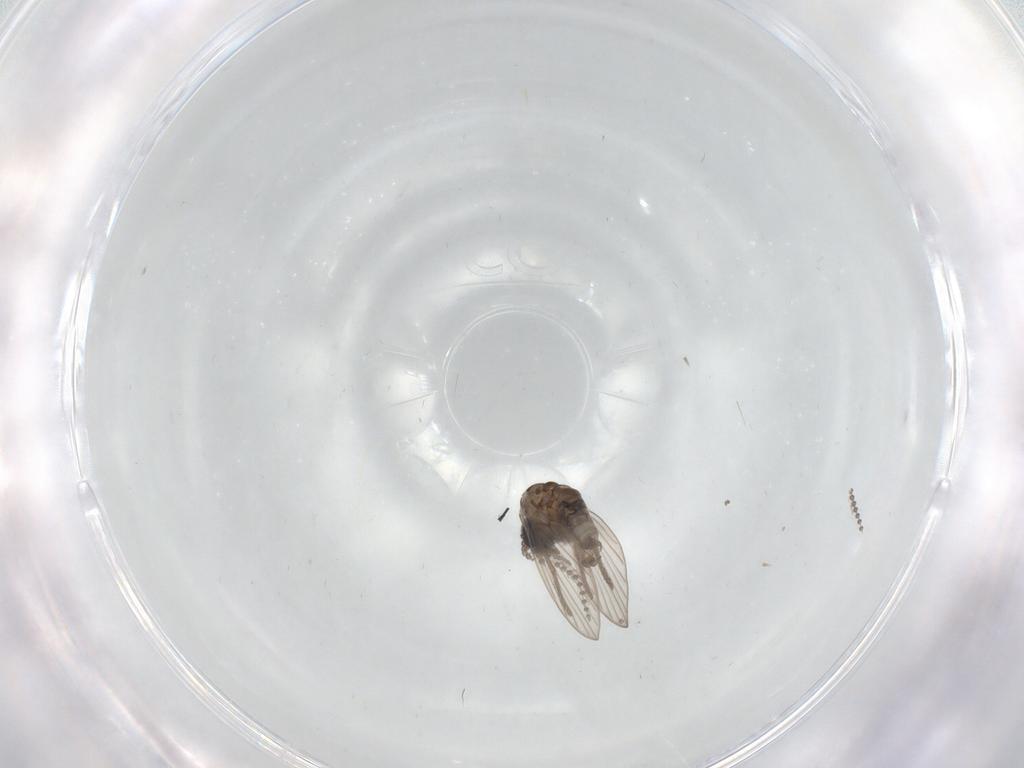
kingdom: Animalia
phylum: Arthropoda
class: Insecta
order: Diptera
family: Psychodidae
